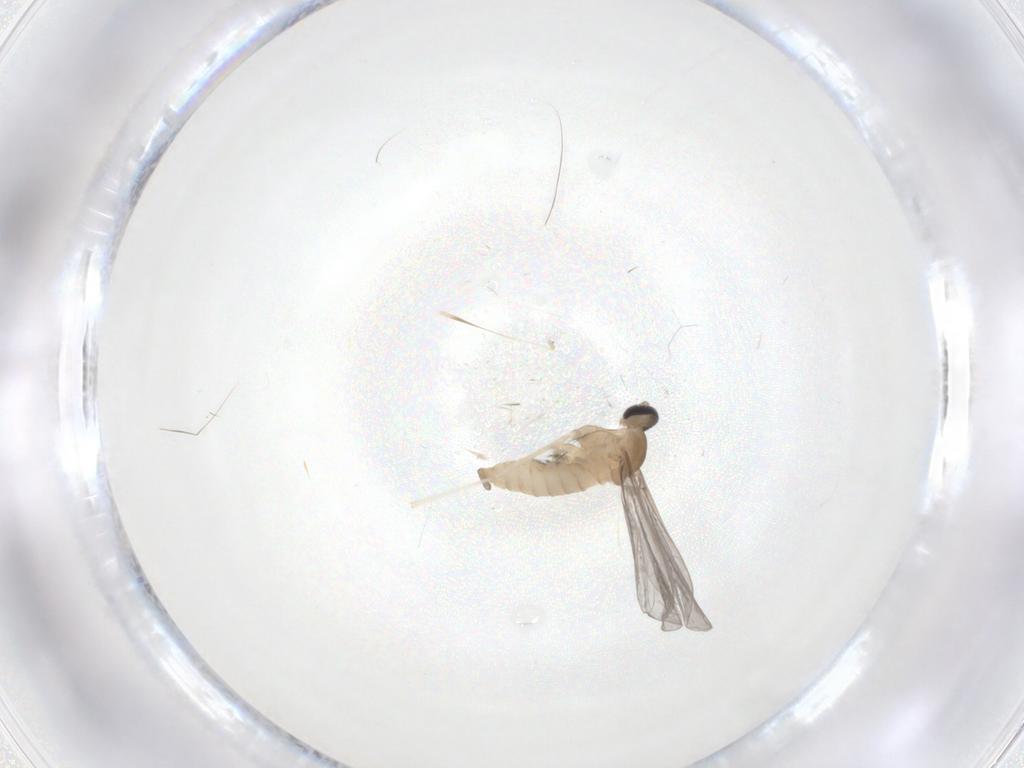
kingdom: Animalia
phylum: Arthropoda
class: Insecta
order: Diptera
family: Cecidomyiidae
